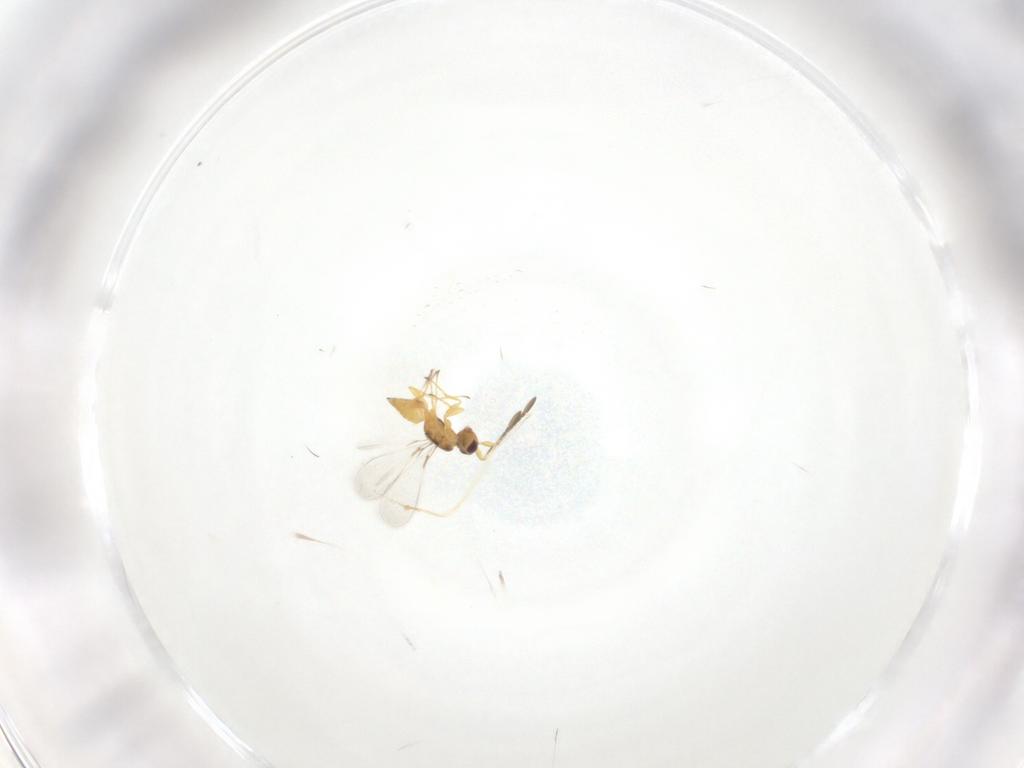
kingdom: Animalia
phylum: Arthropoda
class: Insecta
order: Hymenoptera
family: Mymaridae
